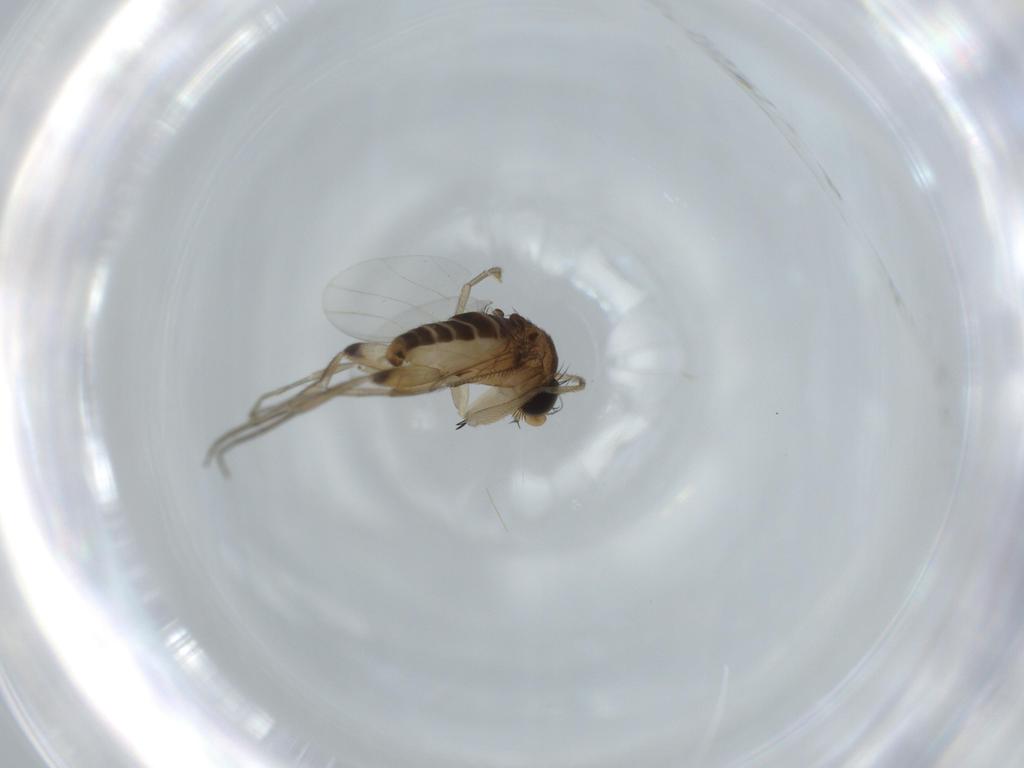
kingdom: Animalia
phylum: Arthropoda
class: Insecta
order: Diptera
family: Phoridae
